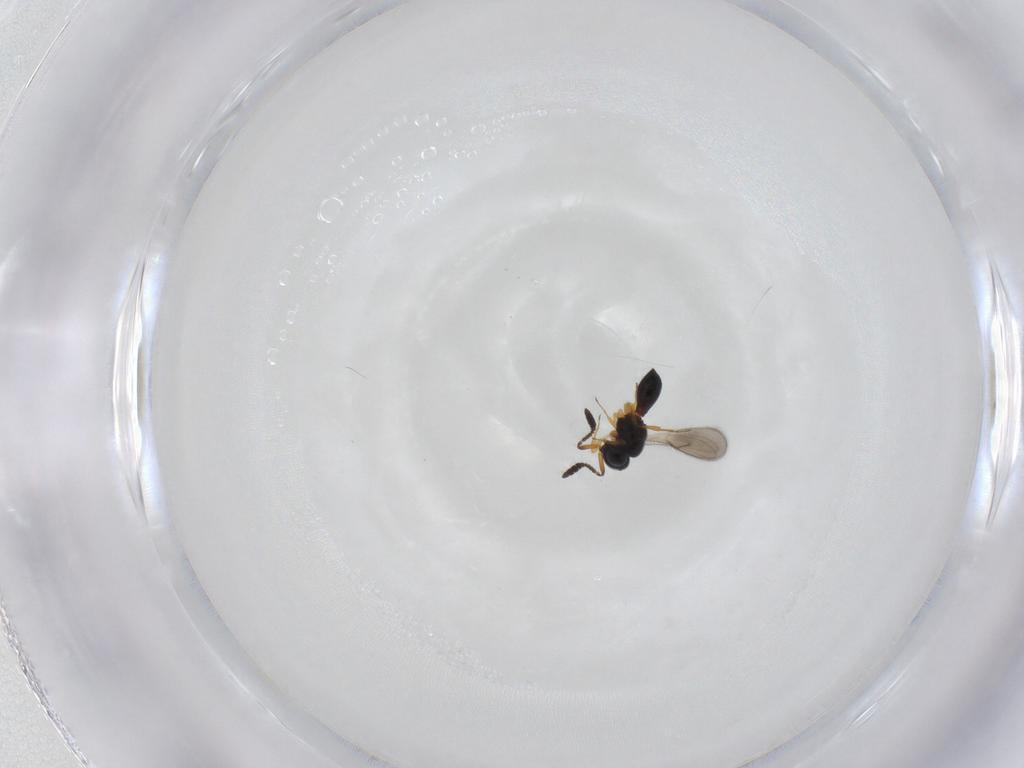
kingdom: Animalia
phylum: Arthropoda
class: Insecta
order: Hymenoptera
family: Scelionidae
